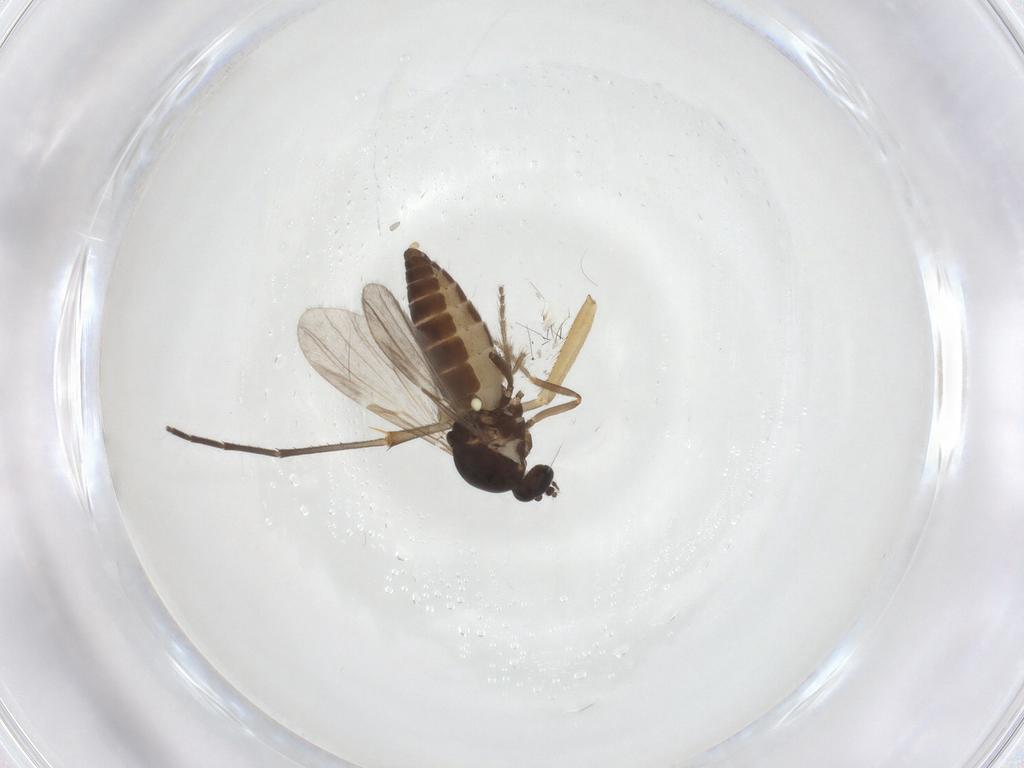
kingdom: Animalia
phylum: Arthropoda
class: Insecta
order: Diptera
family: Ceratopogonidae
